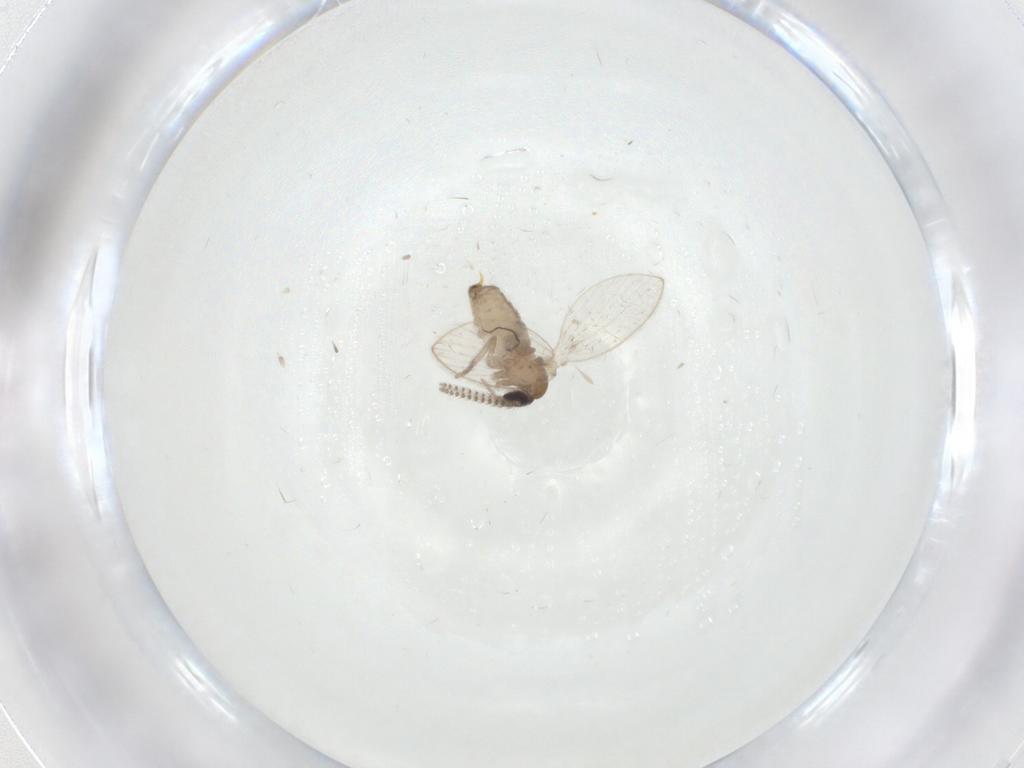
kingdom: Animalia
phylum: Arthropoda
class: Insecta
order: Diptera
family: Psychodidae
